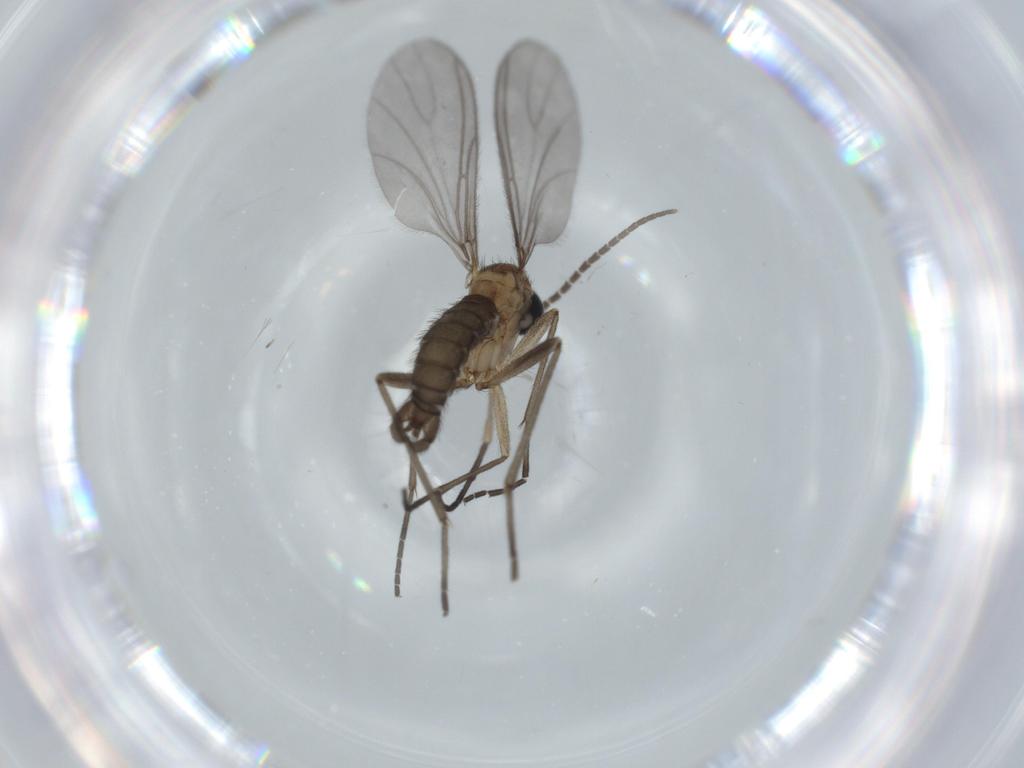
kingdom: Animalia
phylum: Arthropoda
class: Insecta
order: Diptera
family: Sciaridae
